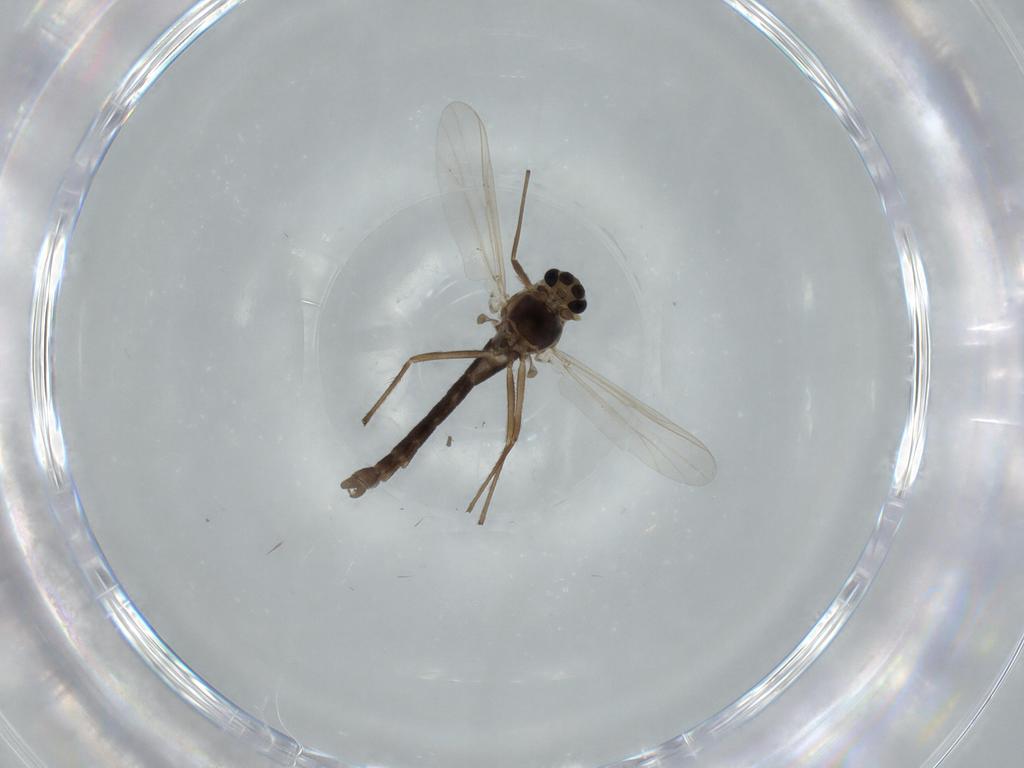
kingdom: Animalia
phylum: Arthropoda
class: Insecta
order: Diptera
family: Chironomidae
